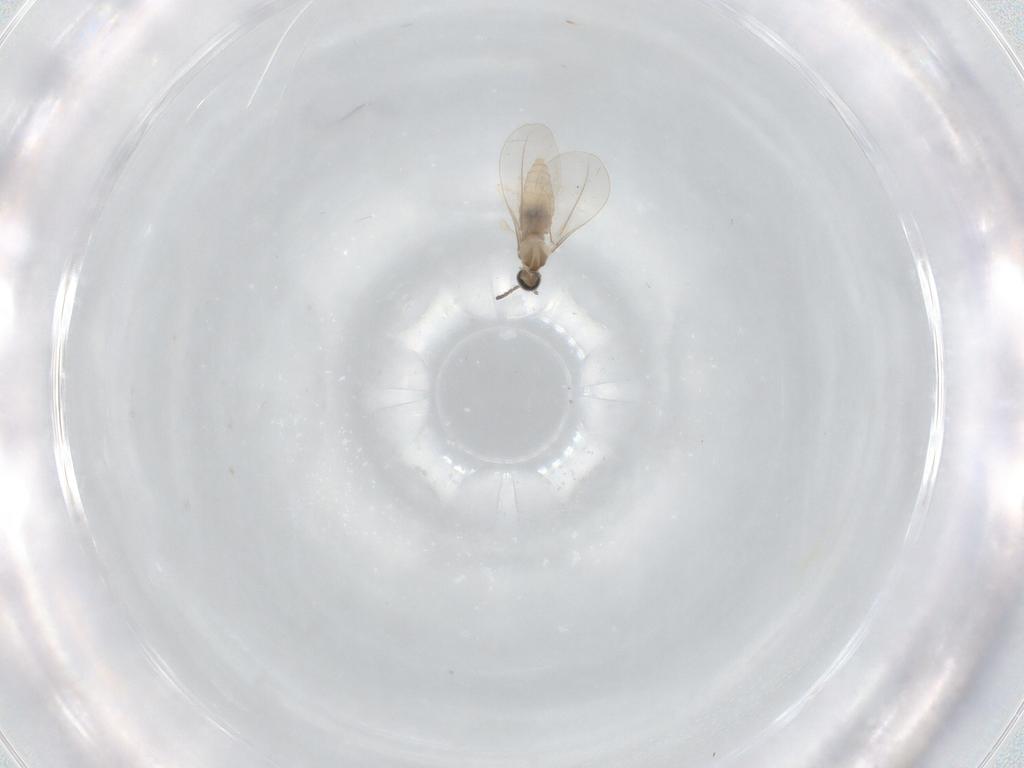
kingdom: Animalia
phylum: Arthropoda
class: Insecta
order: Diptera
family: Cecidomyiidae
